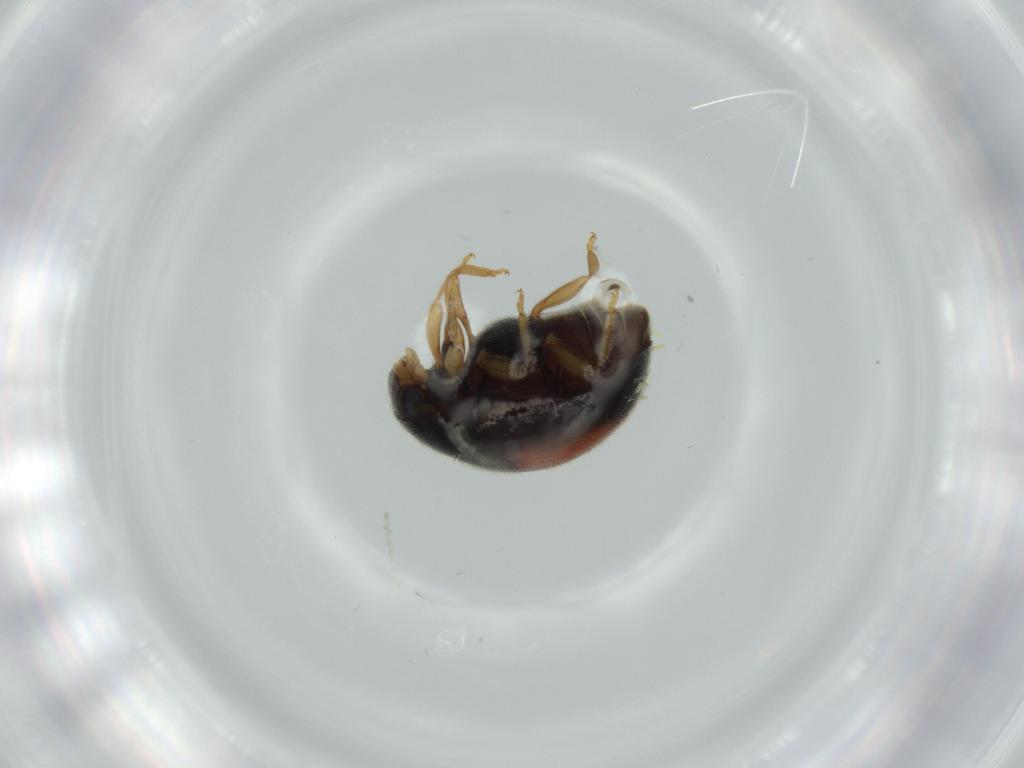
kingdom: Animalia
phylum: Arthropoda
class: Insecta
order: Coleoptera
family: Coccinellidae
